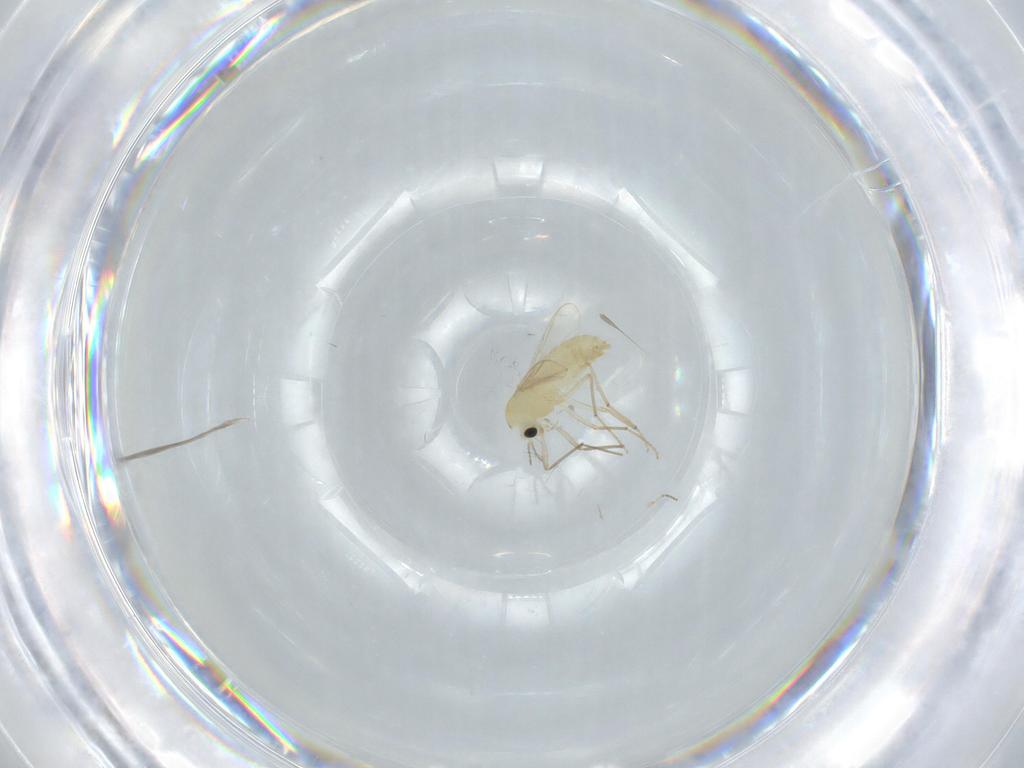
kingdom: Animalia
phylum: Arthropoda
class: Insecta
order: Diptera
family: Chironomidae
